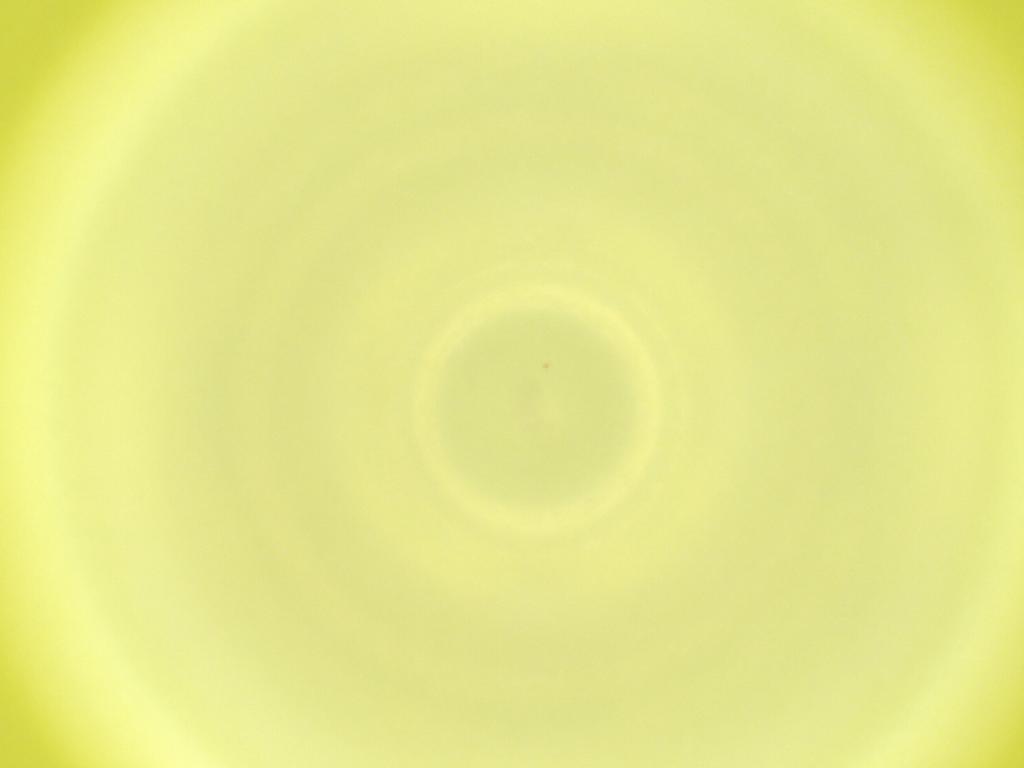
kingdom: Animalia
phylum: Arthropoda
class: Insecta
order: Diptera
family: Cecidomyiidae
